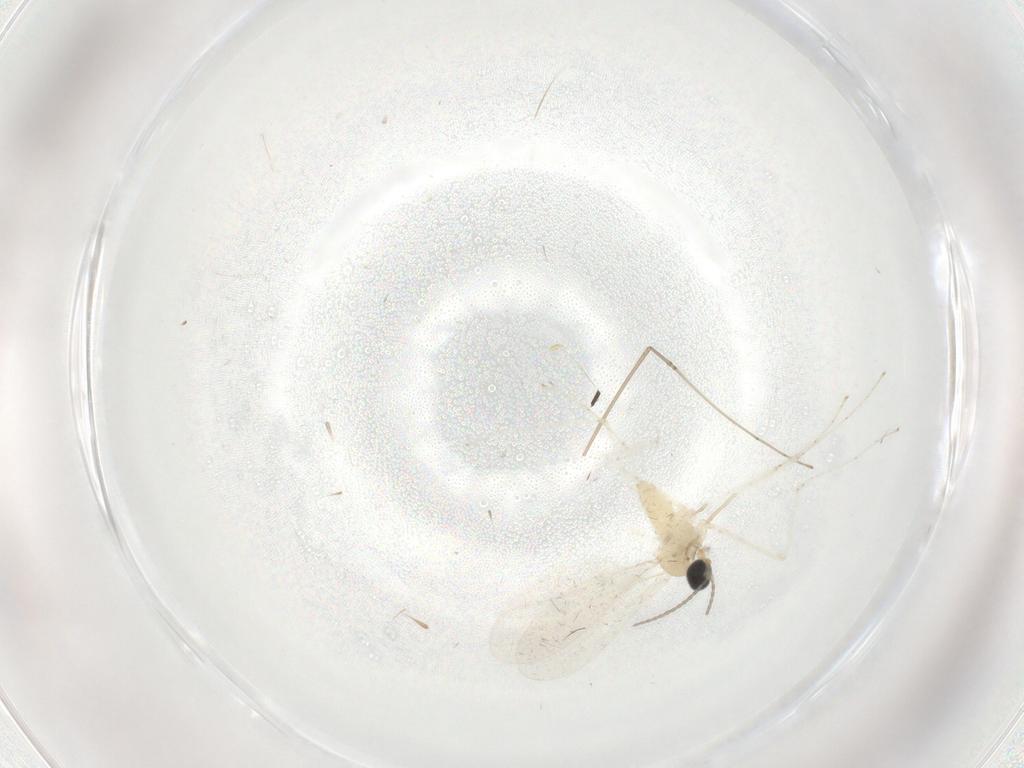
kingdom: Animalia
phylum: Arthropoda
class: Insecta
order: Diptera
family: Cecidomyiidae
